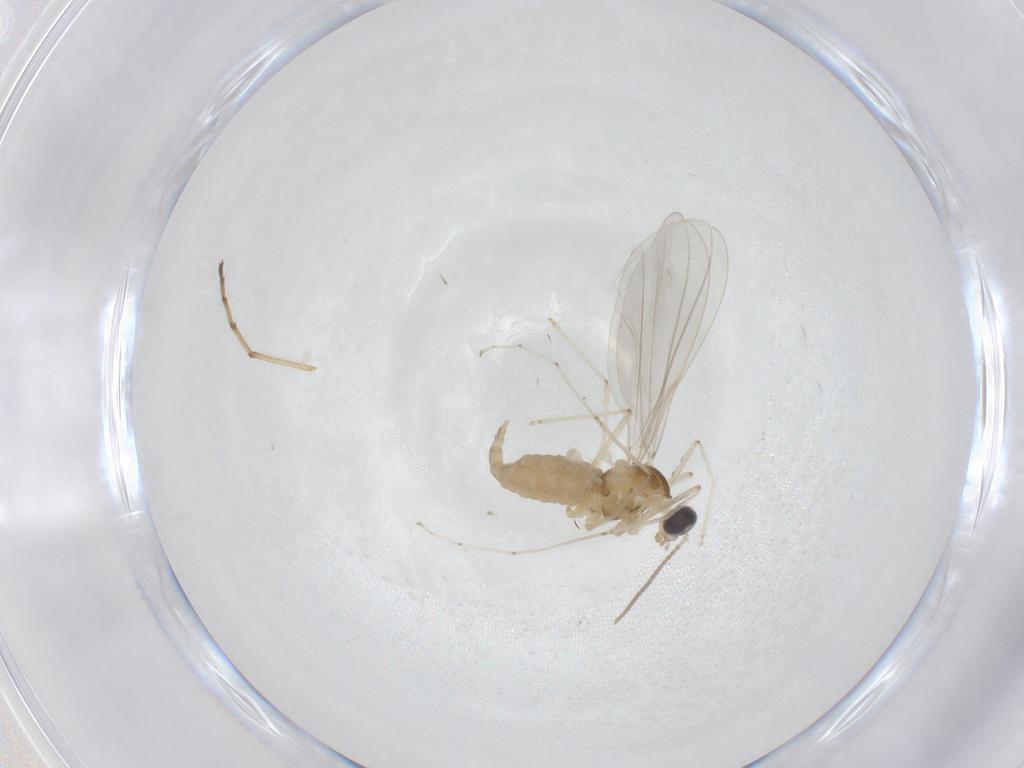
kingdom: Animalia
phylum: Arthropoda
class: Insecta
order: Diptera
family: Cecidomyiidae
